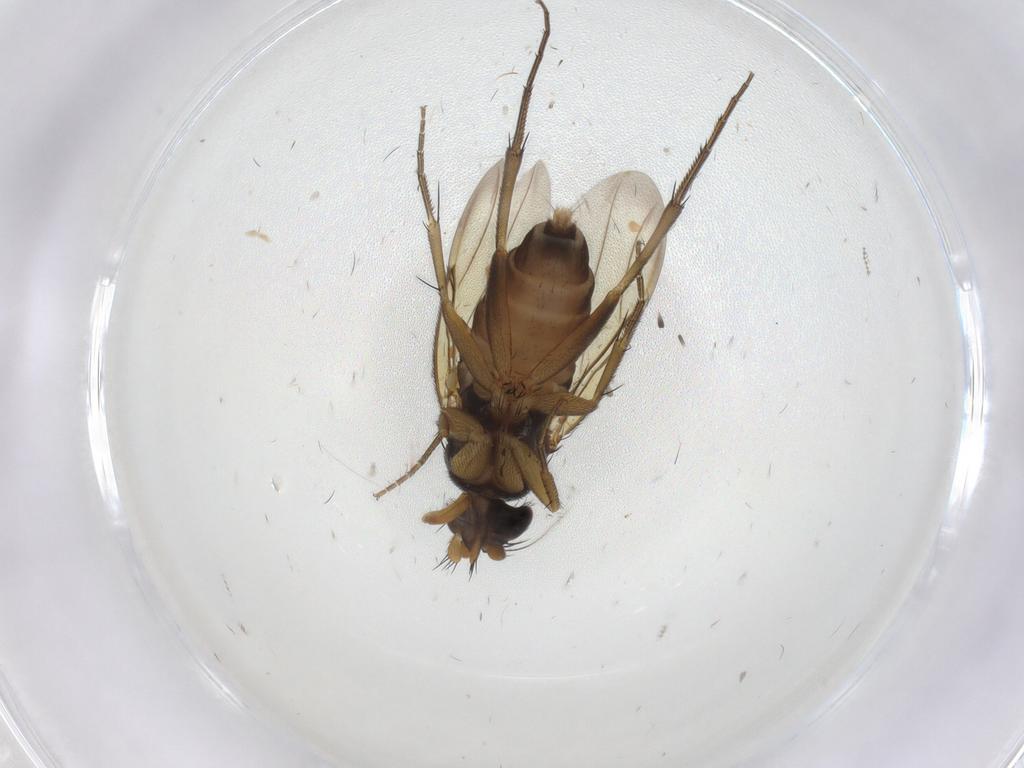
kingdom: Animalia
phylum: Arthropoda
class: Insecta
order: Diptera
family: Phoridae
